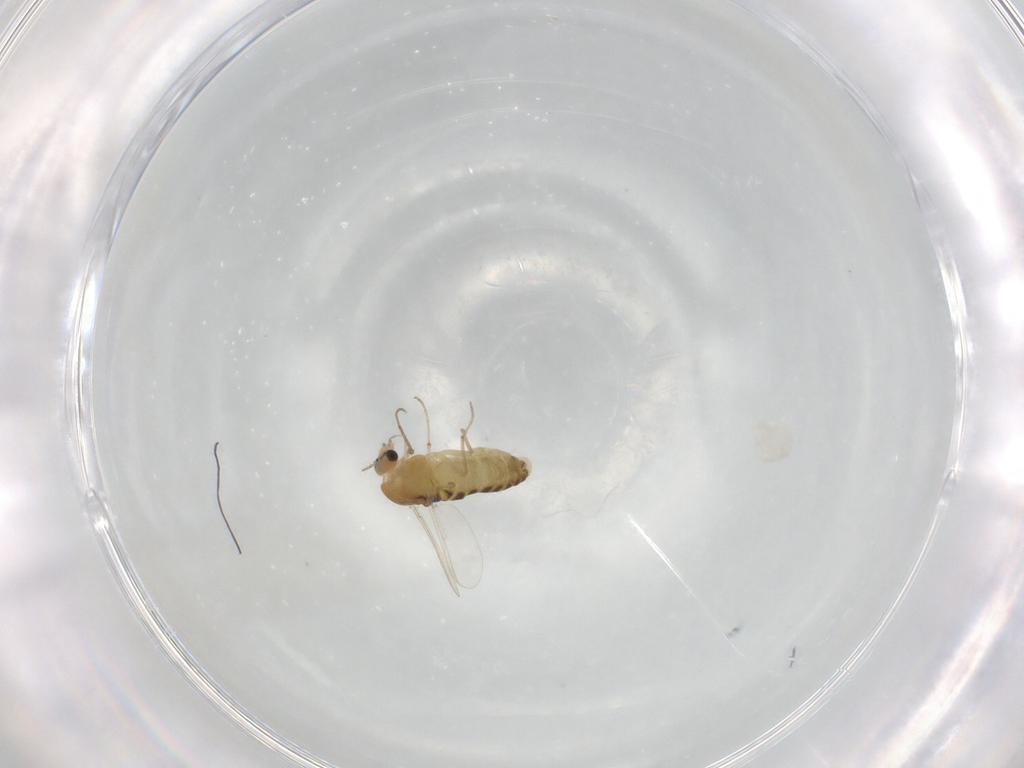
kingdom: Animalia
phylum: Arthropoda
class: Insecta
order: Diptera
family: Chironomidae
